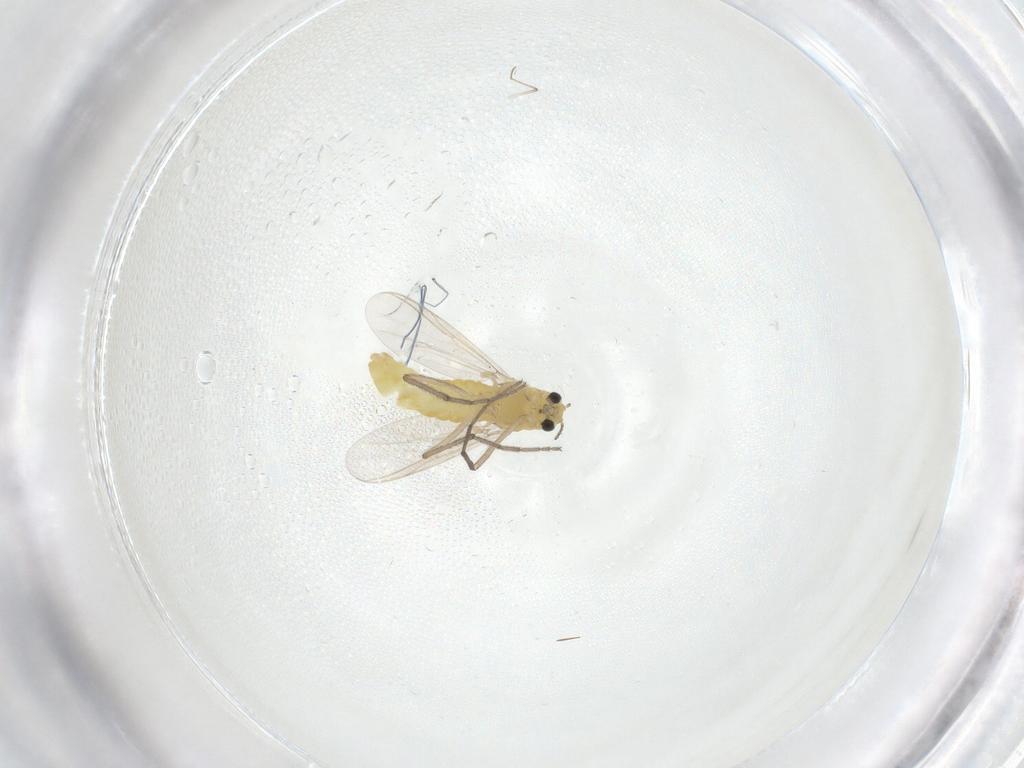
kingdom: Animalia
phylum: Arthropoda
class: Insecta
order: Diptera
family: Chironomidae
